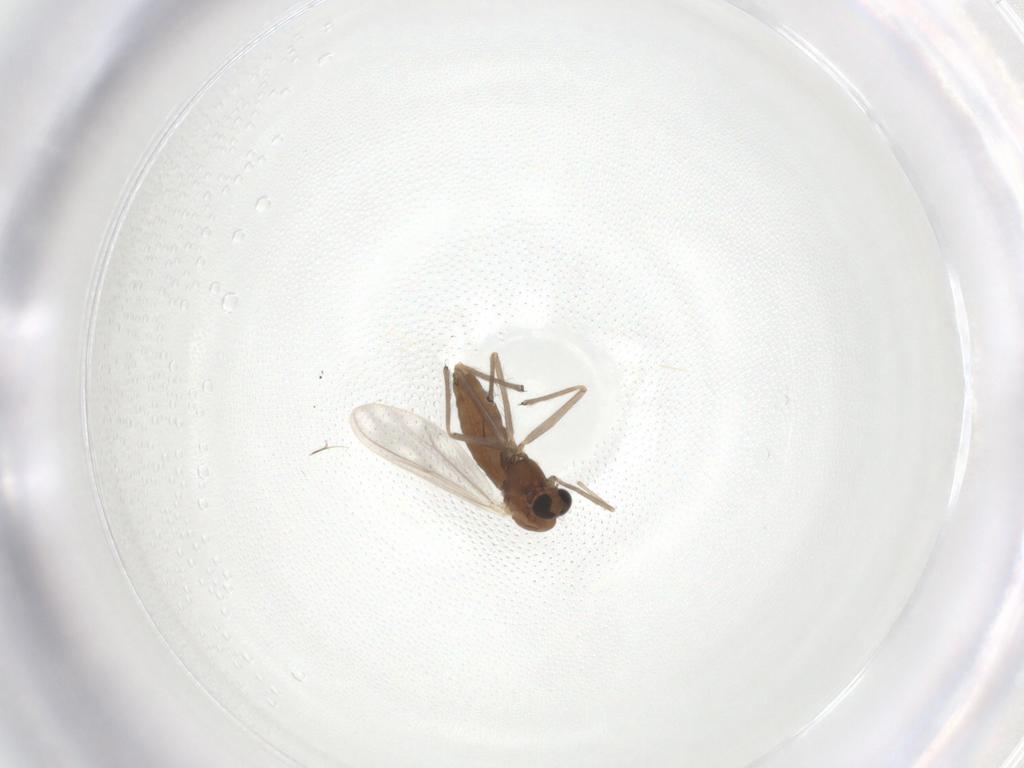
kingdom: Animalia
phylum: Arthropoda
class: Insecta
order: Diptera
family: Chironomidae
